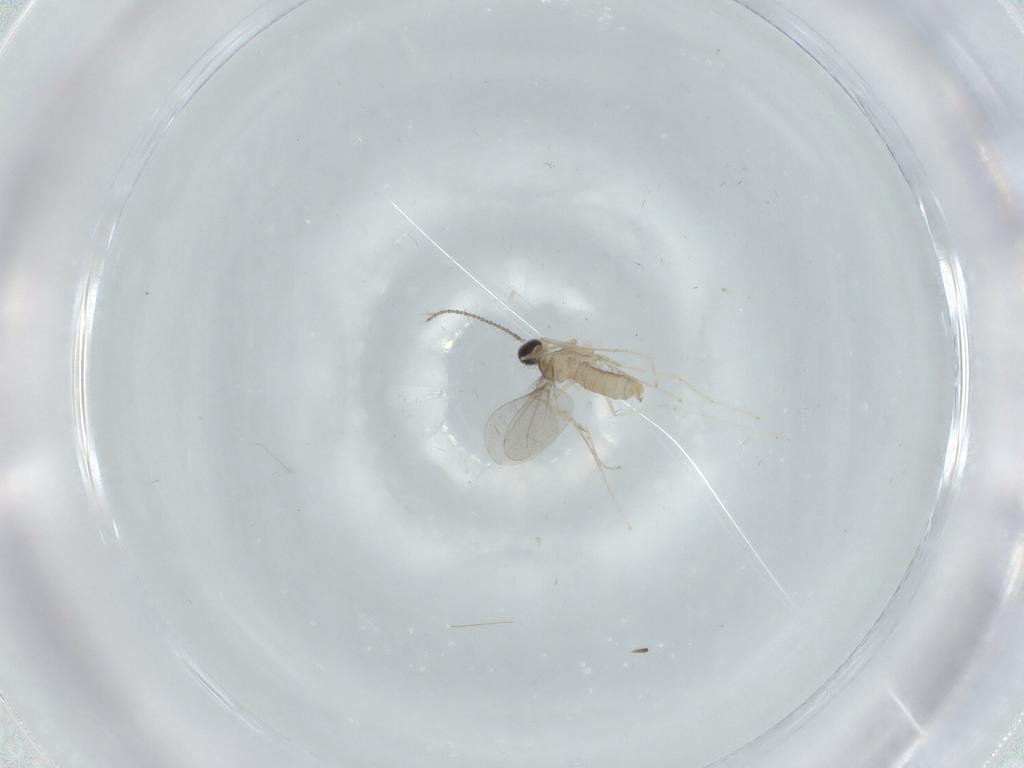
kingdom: Animalia
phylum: Arthropoda
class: Insecta
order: Diptera
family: Cecidomyiidae
